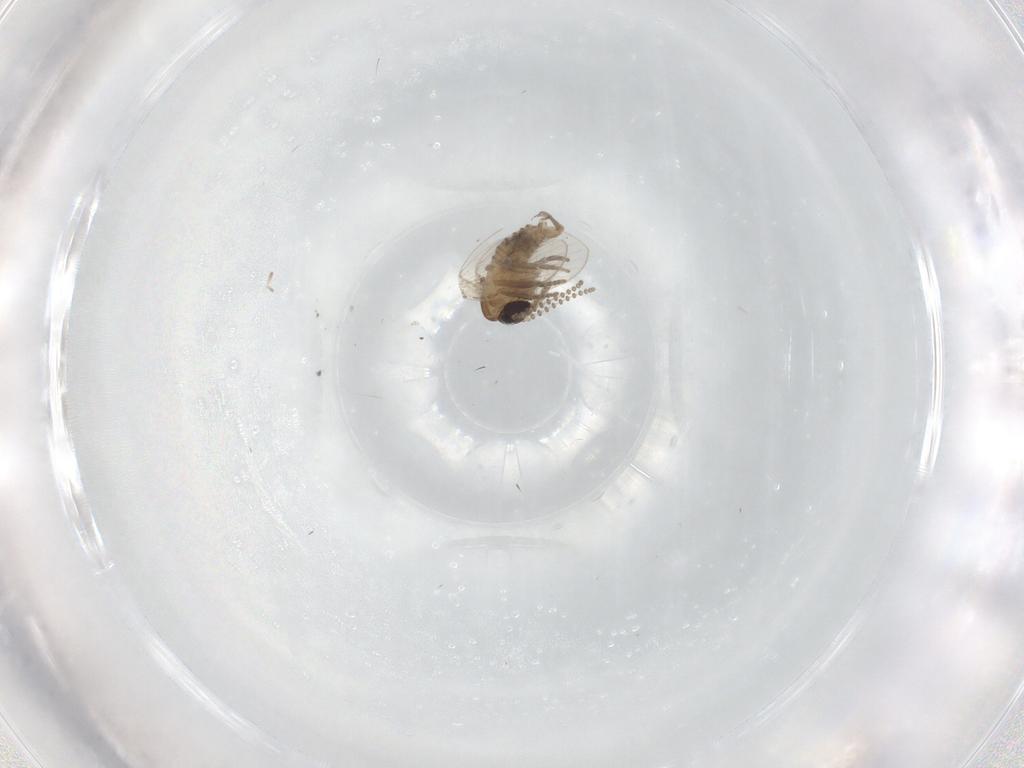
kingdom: Animalia
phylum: Arthropoda
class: Insecta
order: Diptera
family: Psychodidae
